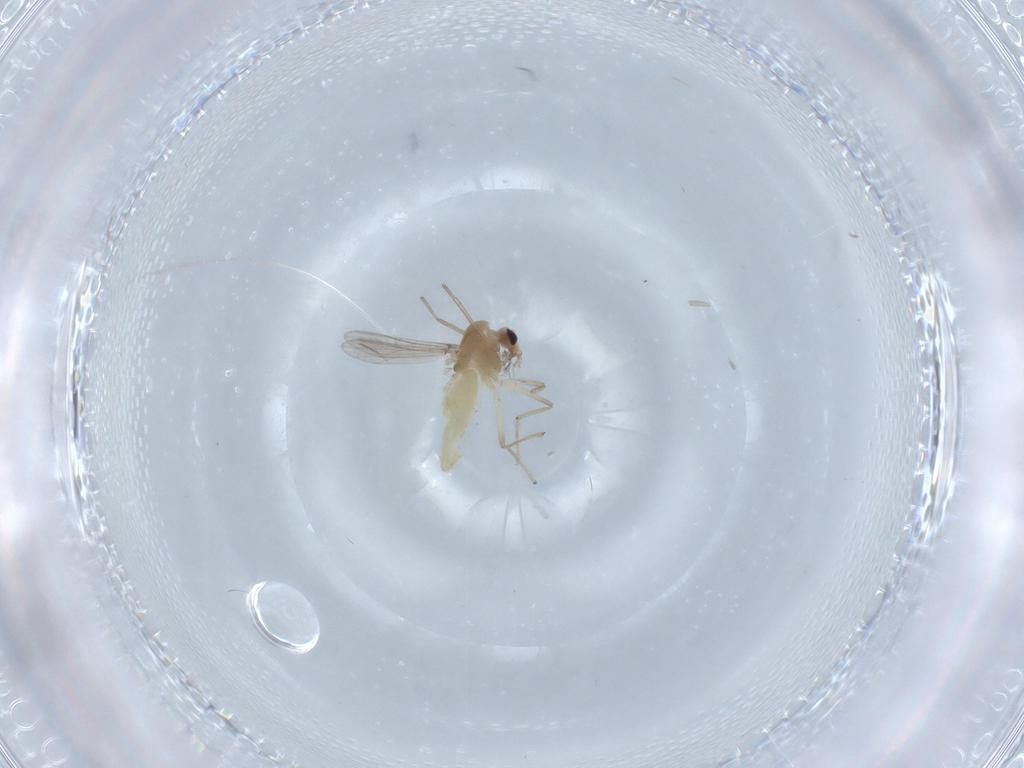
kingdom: Animalia
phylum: Arthropoda
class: Insecta
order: Diptera
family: Chironomidae
